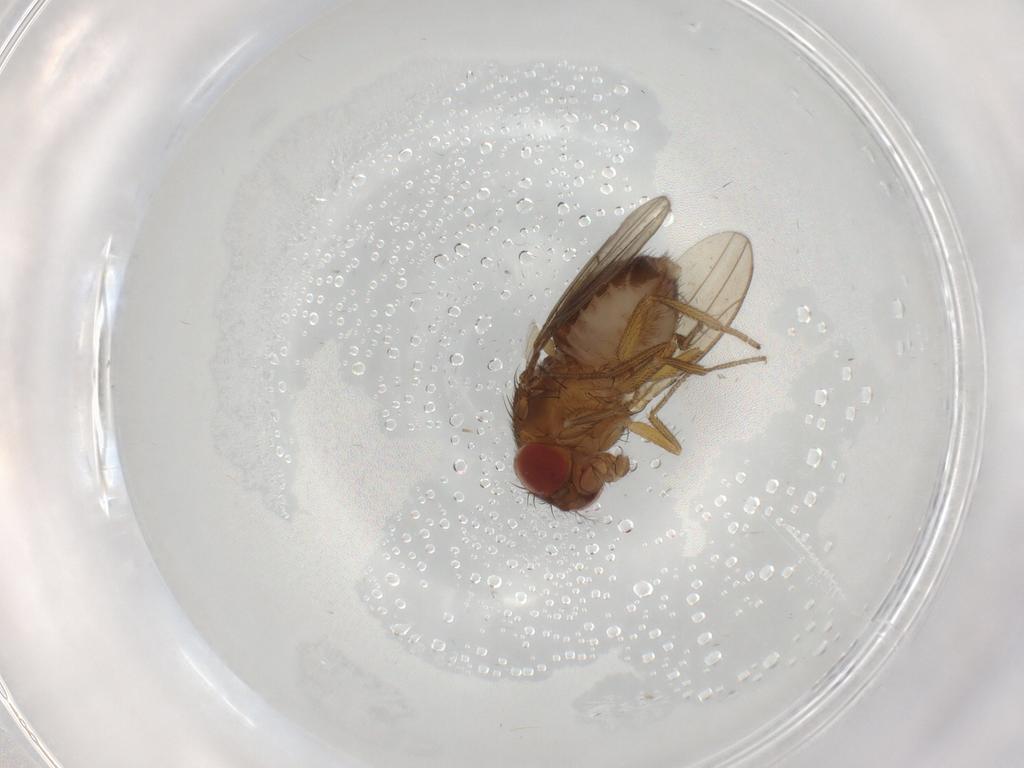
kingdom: Animalia
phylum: Arthropoda
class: Insecta
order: Diptera
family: Drosophilidae
